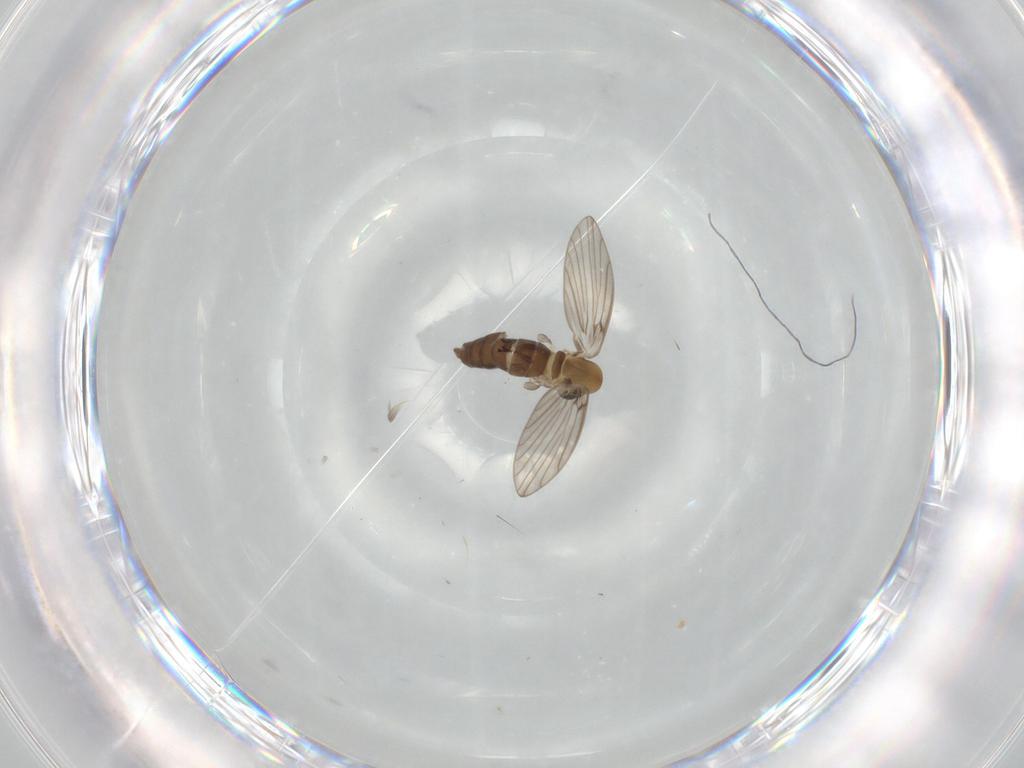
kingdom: Animalia
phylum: Arthropoda
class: Insecta
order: Diptera
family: Psychodidae
